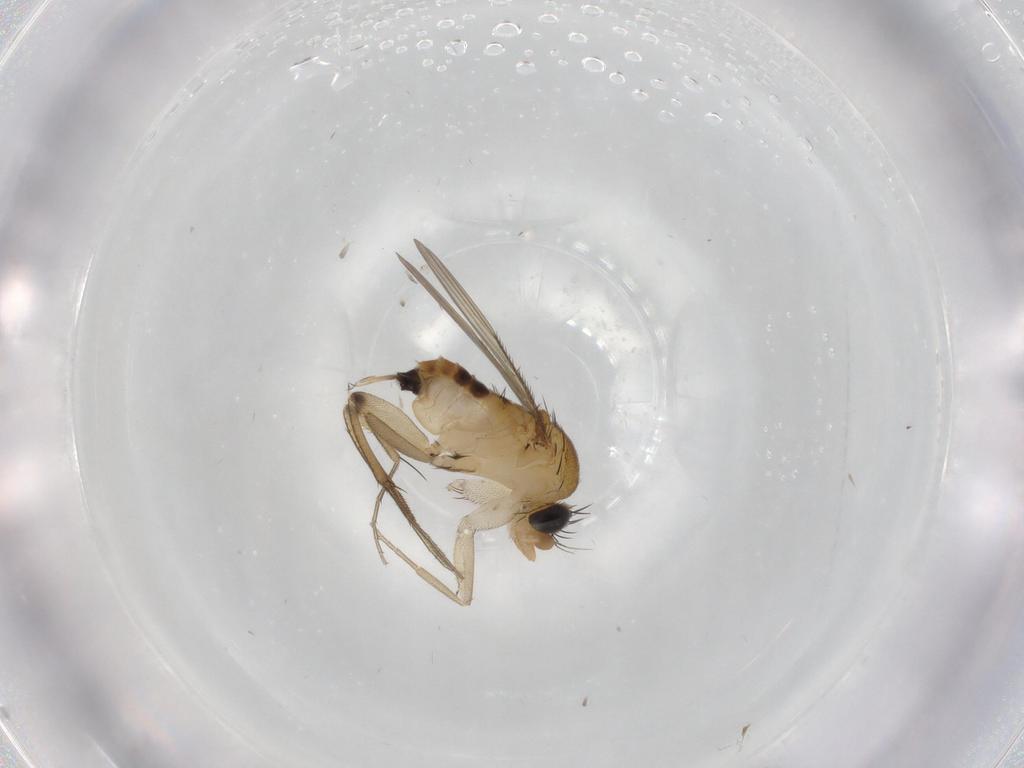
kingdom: Animalia
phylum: Arthropoda
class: Insecta
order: Diptera
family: Phoridae
